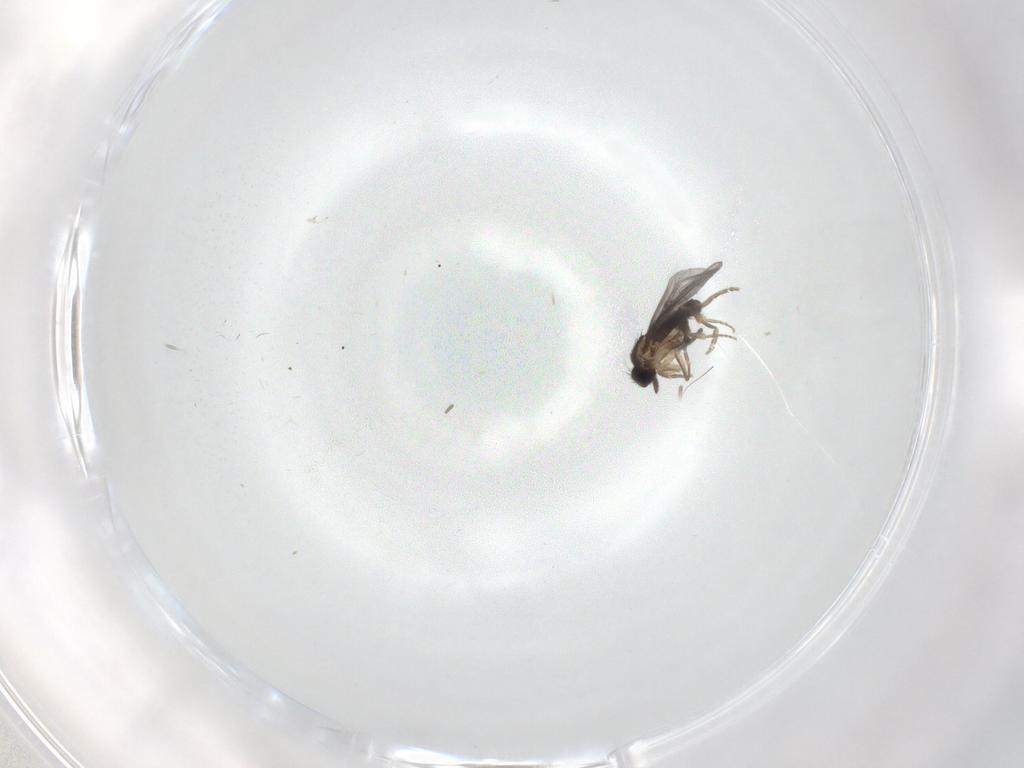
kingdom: Animalia
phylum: Arthropoda
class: Insecta
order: Diptera
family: Sciaridae
